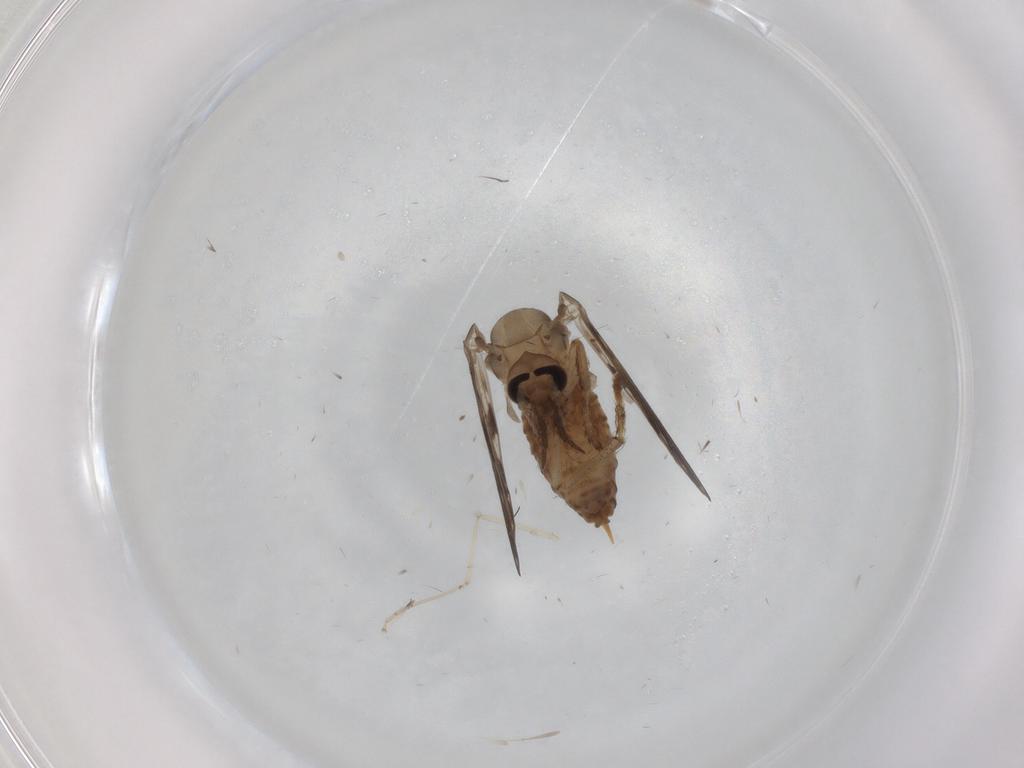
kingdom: Animalia
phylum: Arthropoda
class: Insecta
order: Diptera
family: Psychodidae
